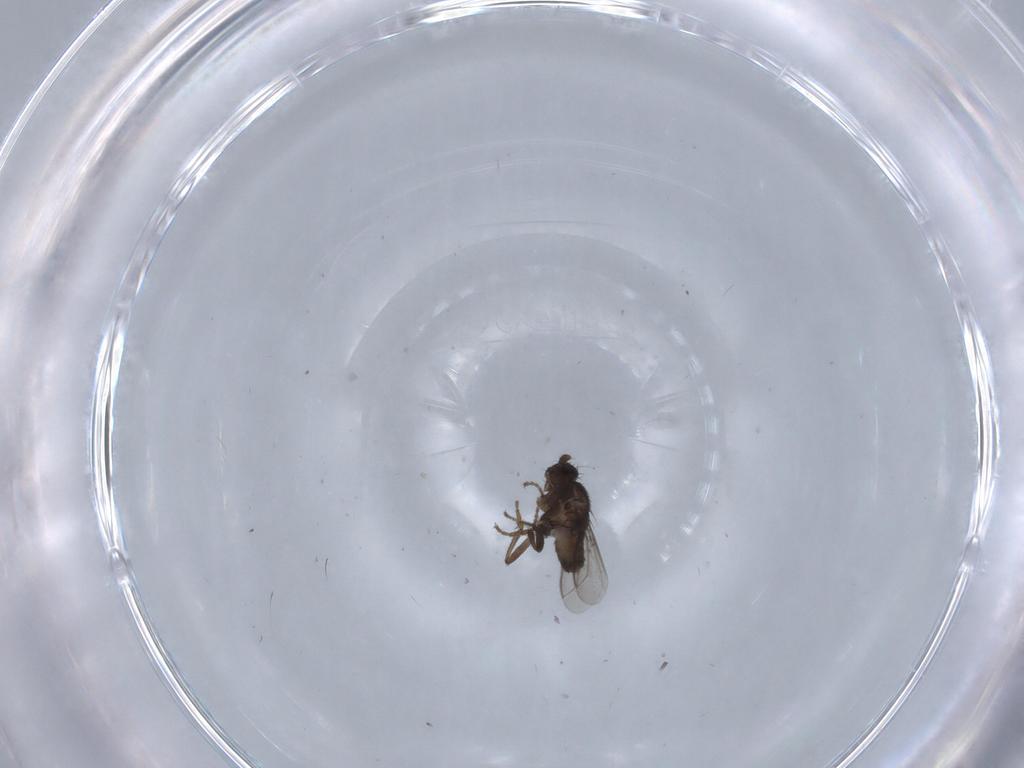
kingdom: Animalia
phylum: Arthropoda
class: Insecta
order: Diptera
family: Sphaeroceridae
